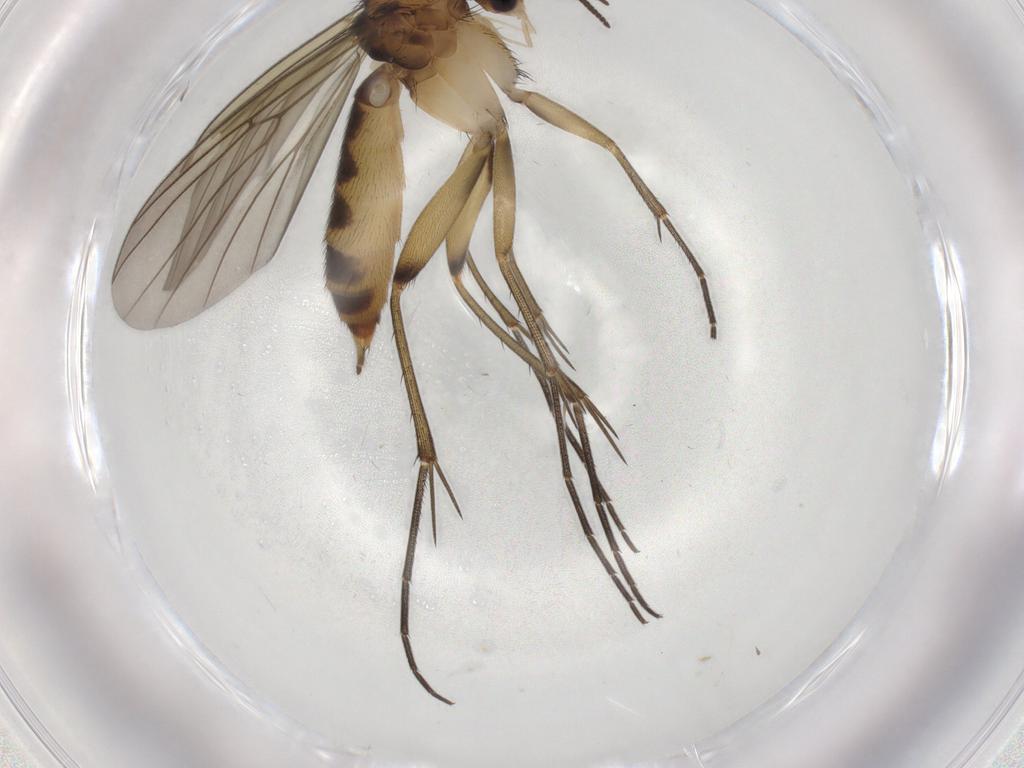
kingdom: Animalia
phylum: Arthropoda
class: Insecta
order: Diptera
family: Mycetophilidae
